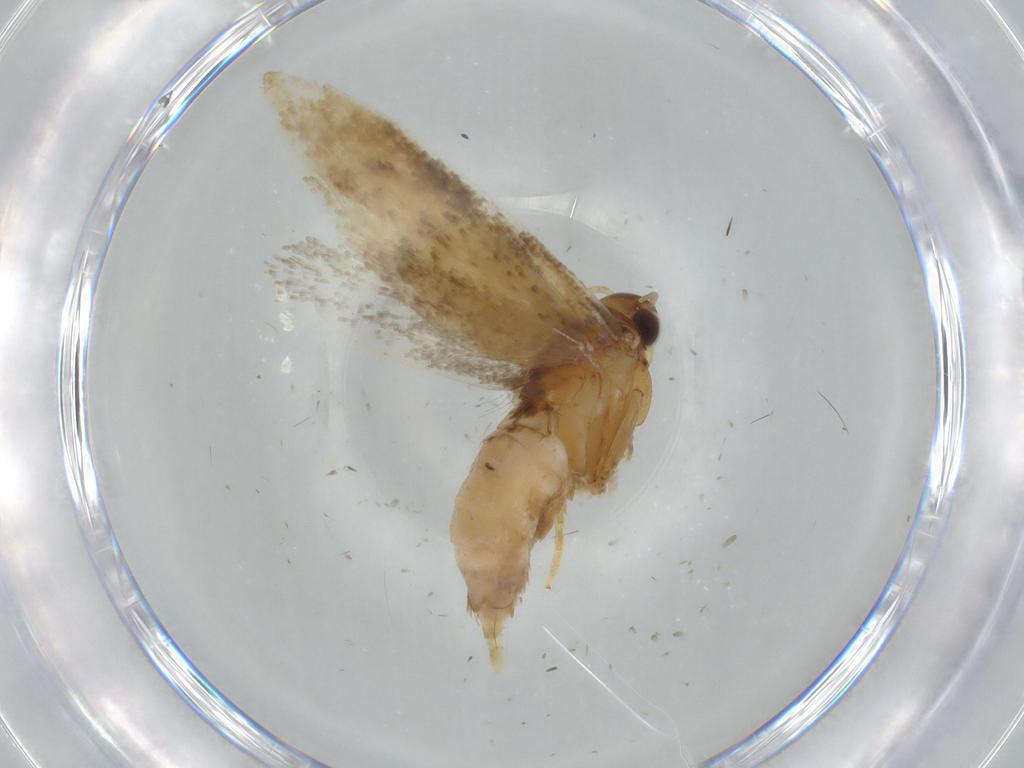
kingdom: Animalia
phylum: Arthropoda
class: Insecta
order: Lepidoptera
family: Gelechiidae
